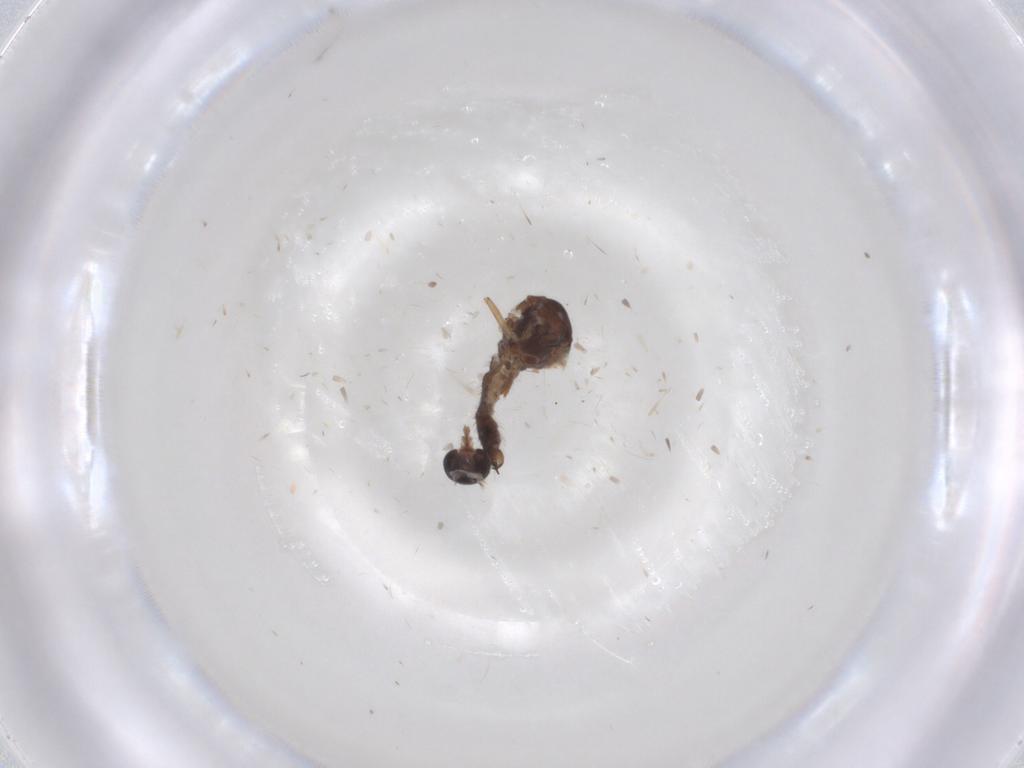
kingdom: Animalia
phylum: Arthropoda
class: Insecta
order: Diptera
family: Ceratopogonidae
